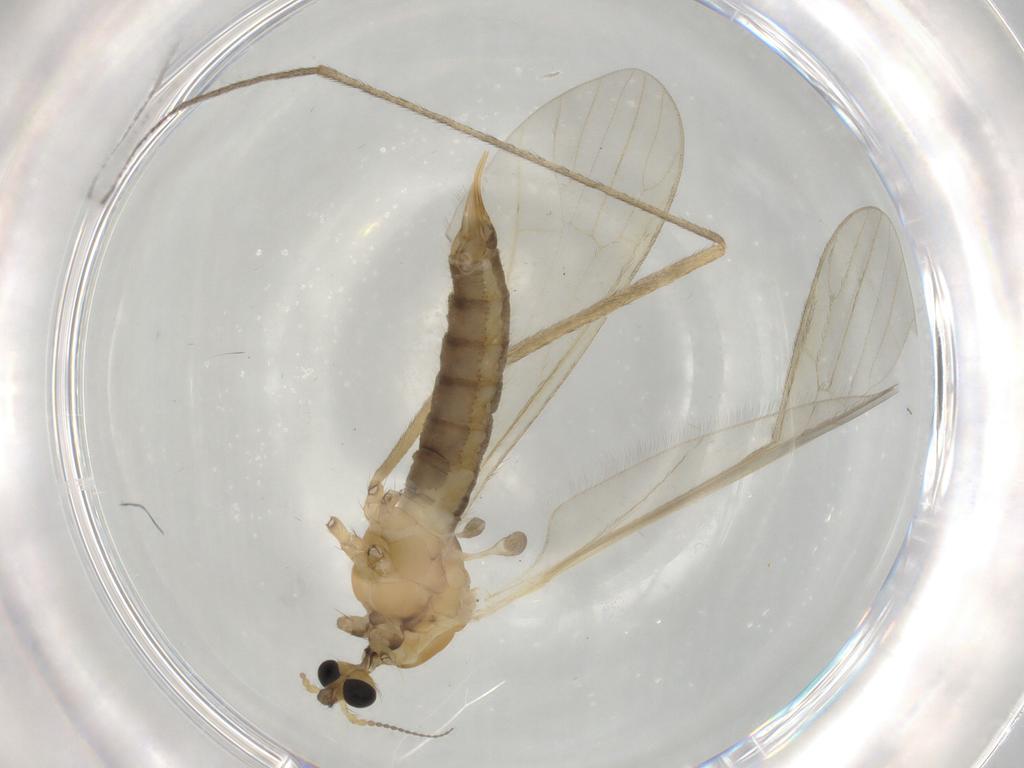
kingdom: Animalia
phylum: Arthropoda
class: Insecta
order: Diptera
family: Limoniidae
